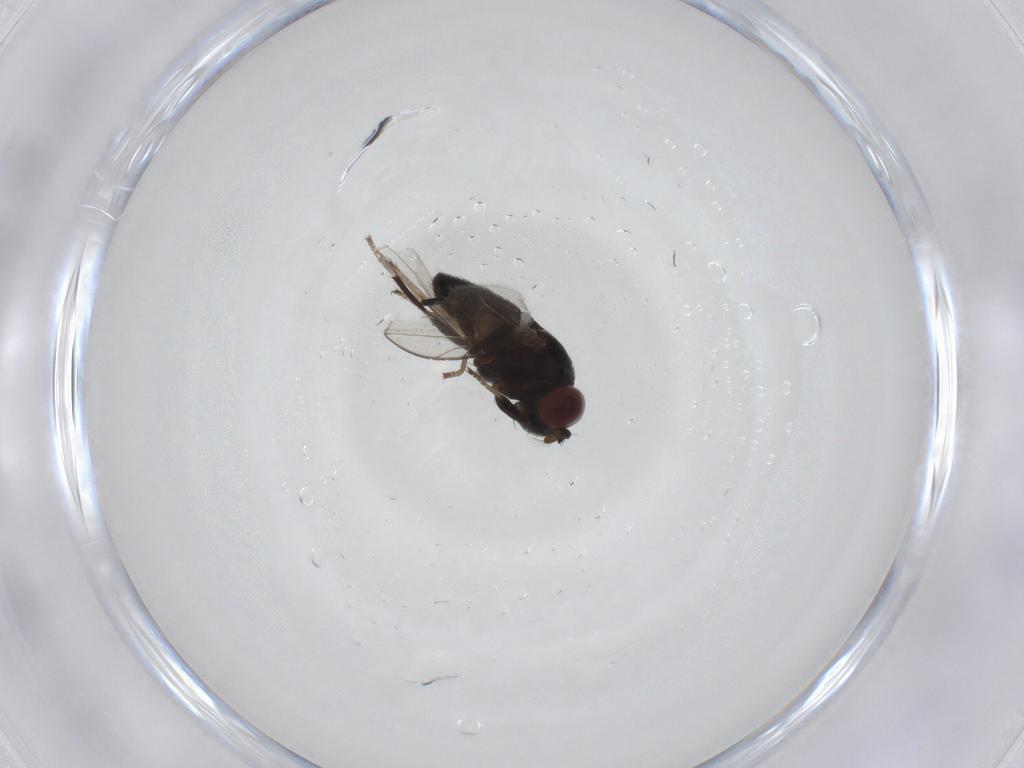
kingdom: Animalia
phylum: Arthropoda
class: Insecta
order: Diptera
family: Ephydridae
